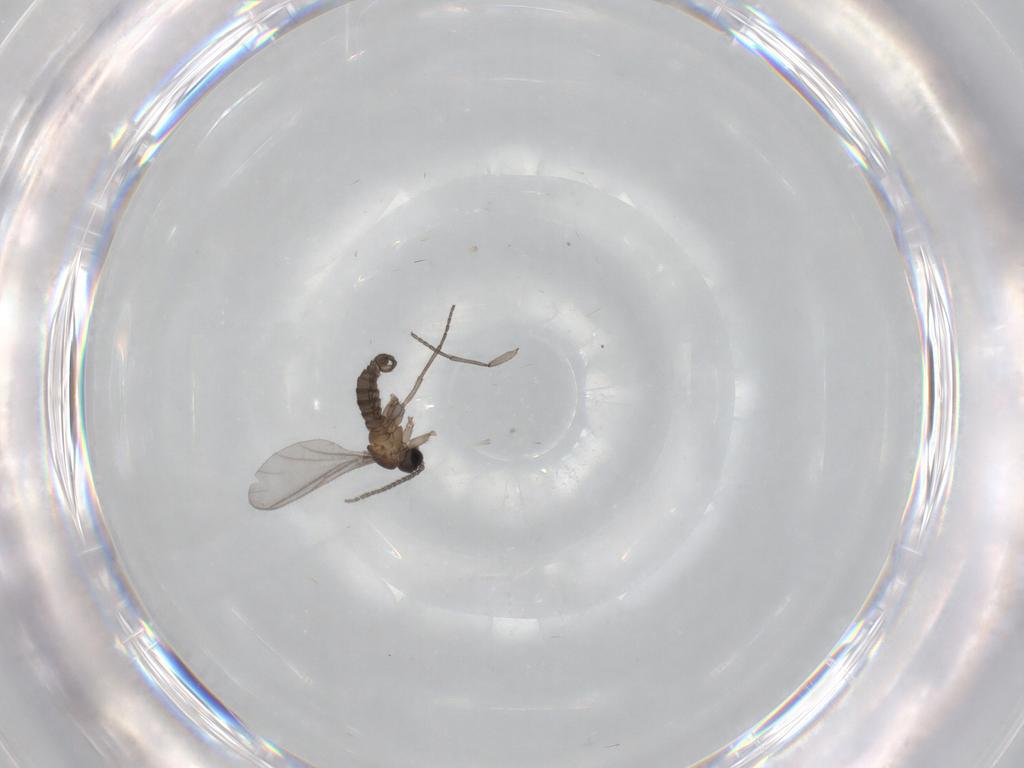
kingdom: Animalia
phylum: Arthropoda
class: Insecta
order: Diptera
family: Sciaridae
